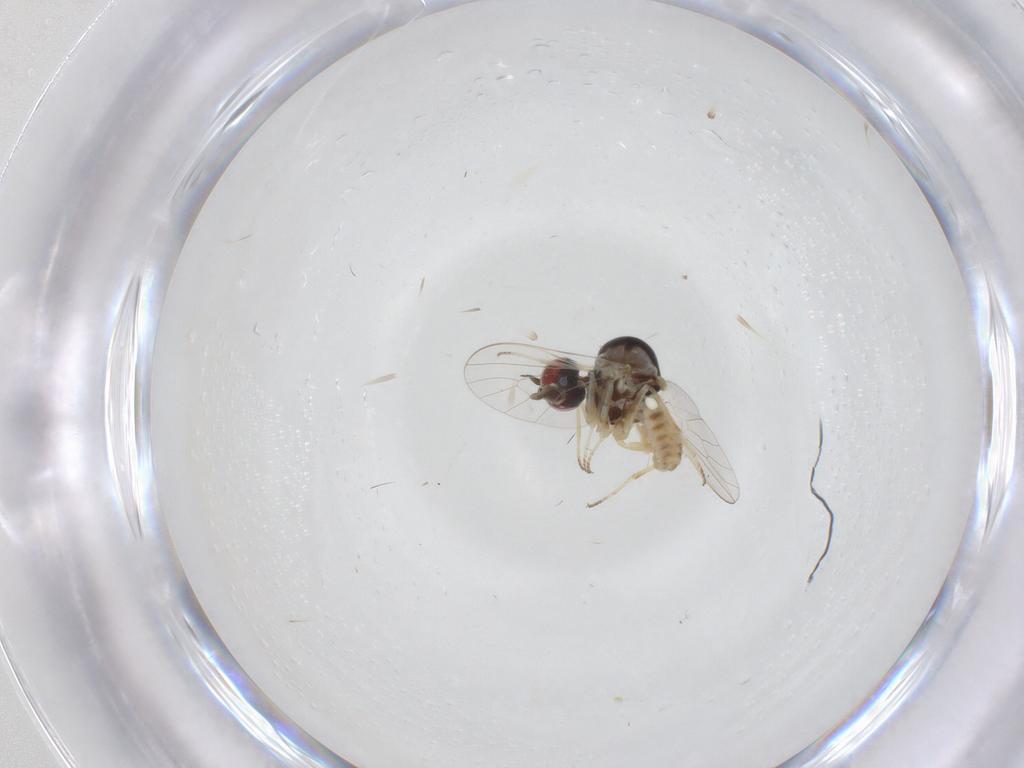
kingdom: Animalia
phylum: Arthropoda
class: Insecta
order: Diptera
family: Bombyliidae
